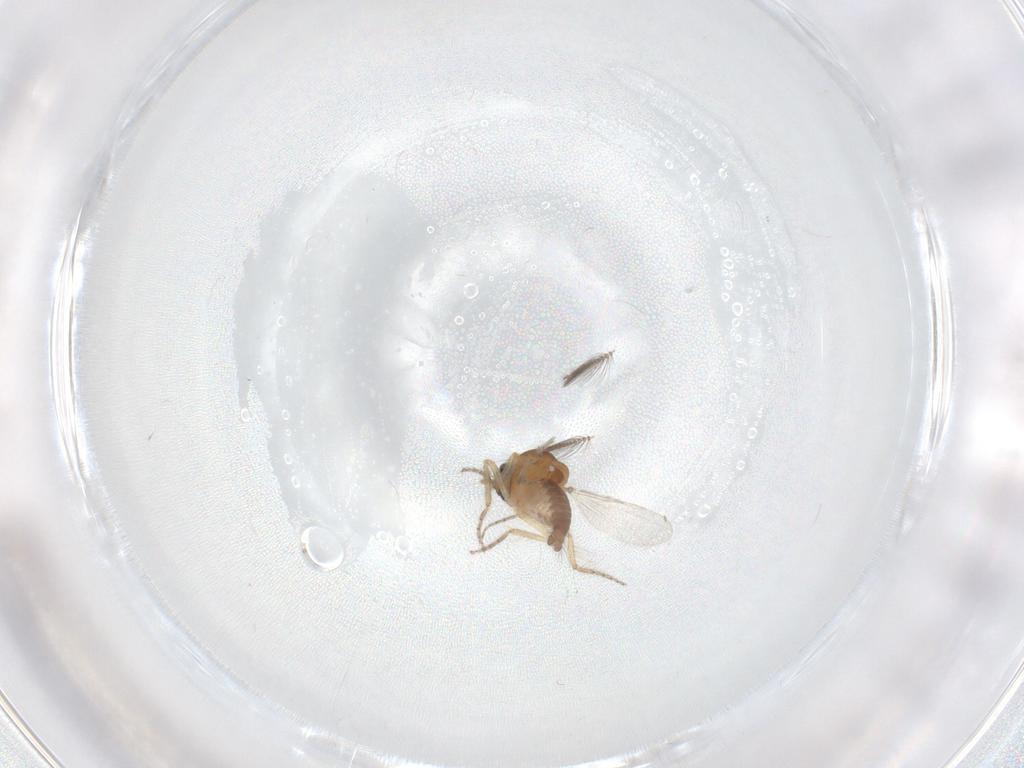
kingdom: Animalia
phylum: Arthropoda
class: Insecta
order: Diptera
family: Ceratopogonidae
